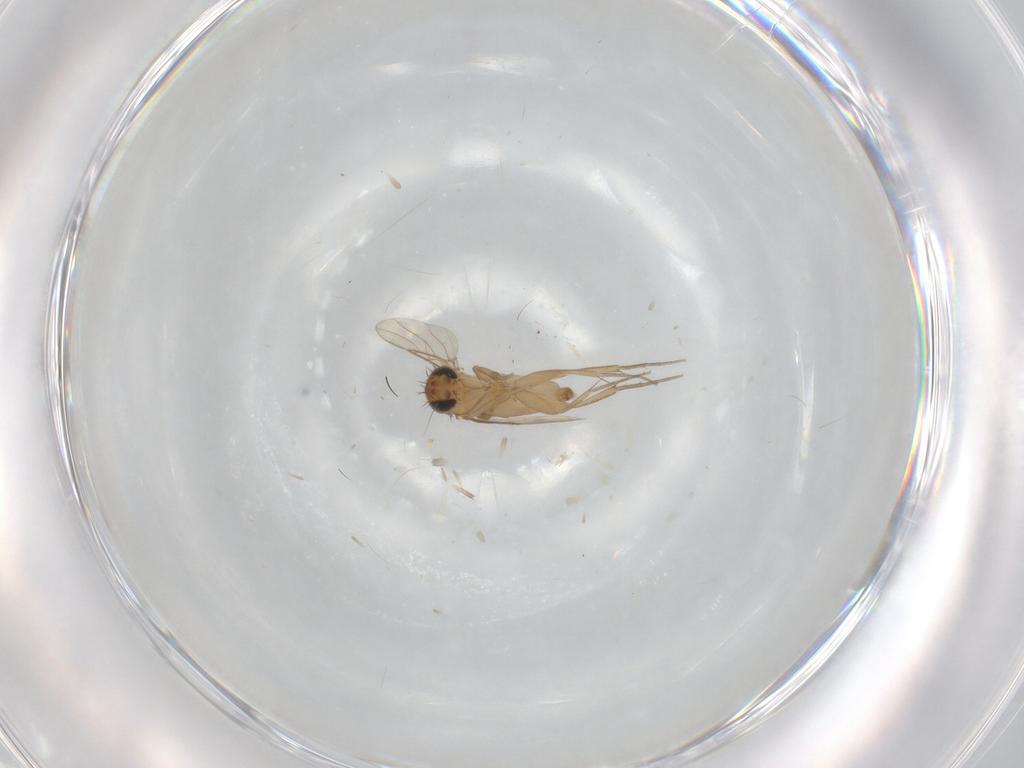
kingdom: Animalia
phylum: Arthropoda
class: Insecta
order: Diptera
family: Phoridae
